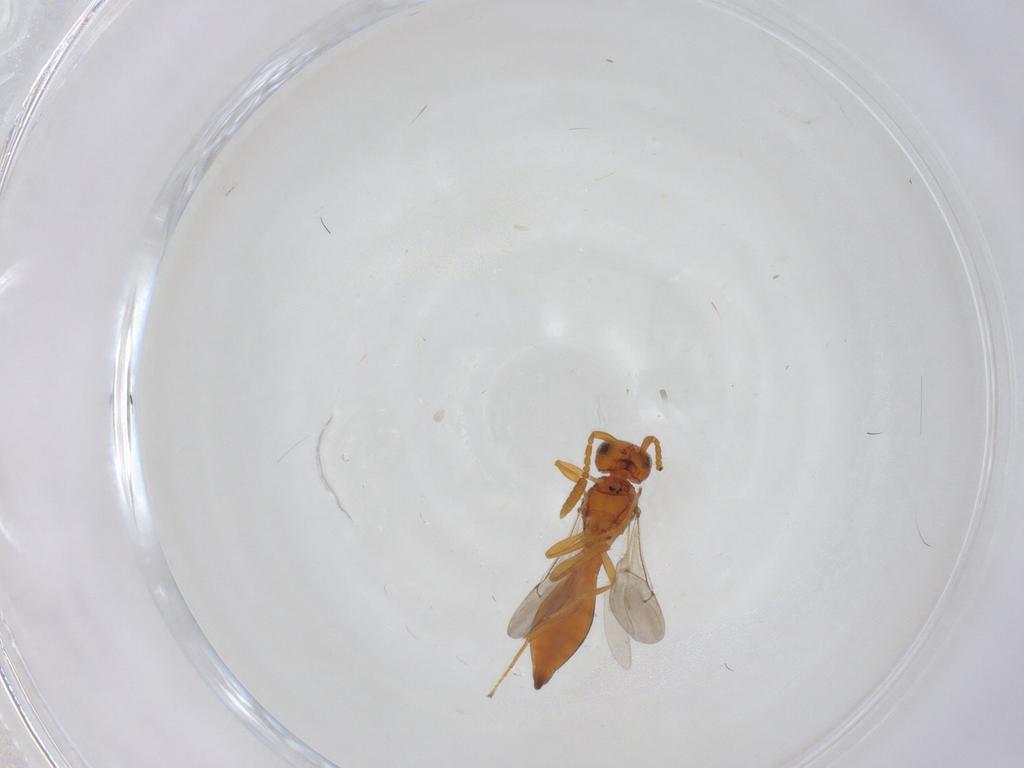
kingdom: Animalia
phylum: Arthropoda
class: Insecta
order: Hymenoptera
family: Scelionidae
